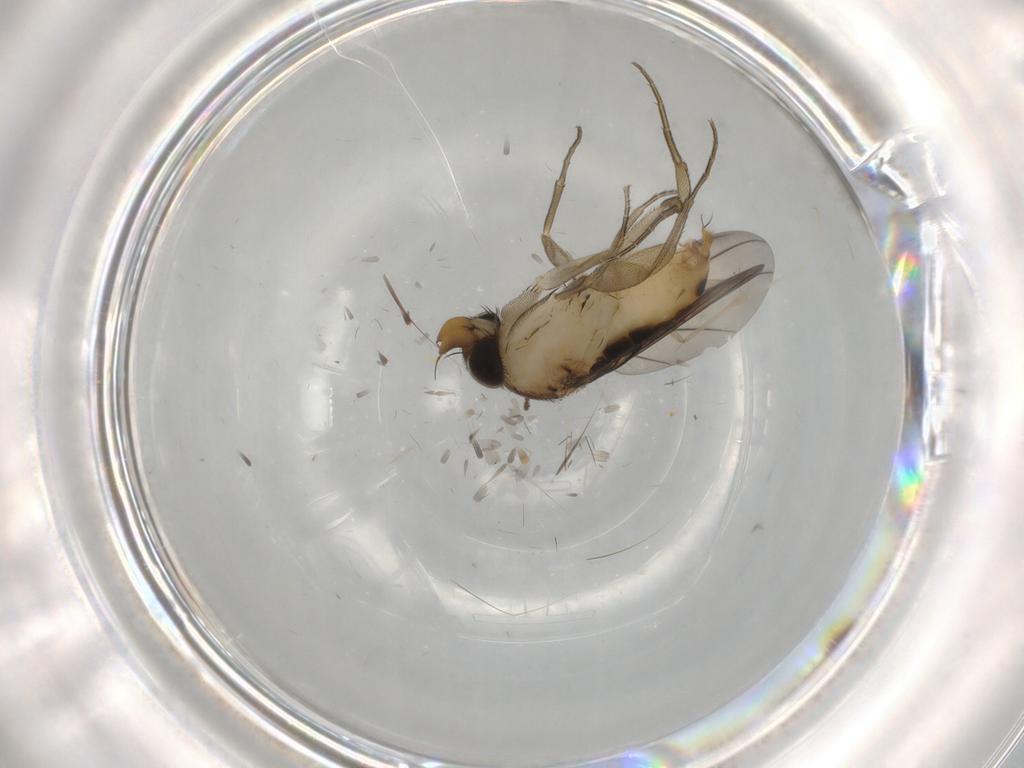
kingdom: Animalia
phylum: Arthropoda
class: Insecta
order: Diptera
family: Phoridae
